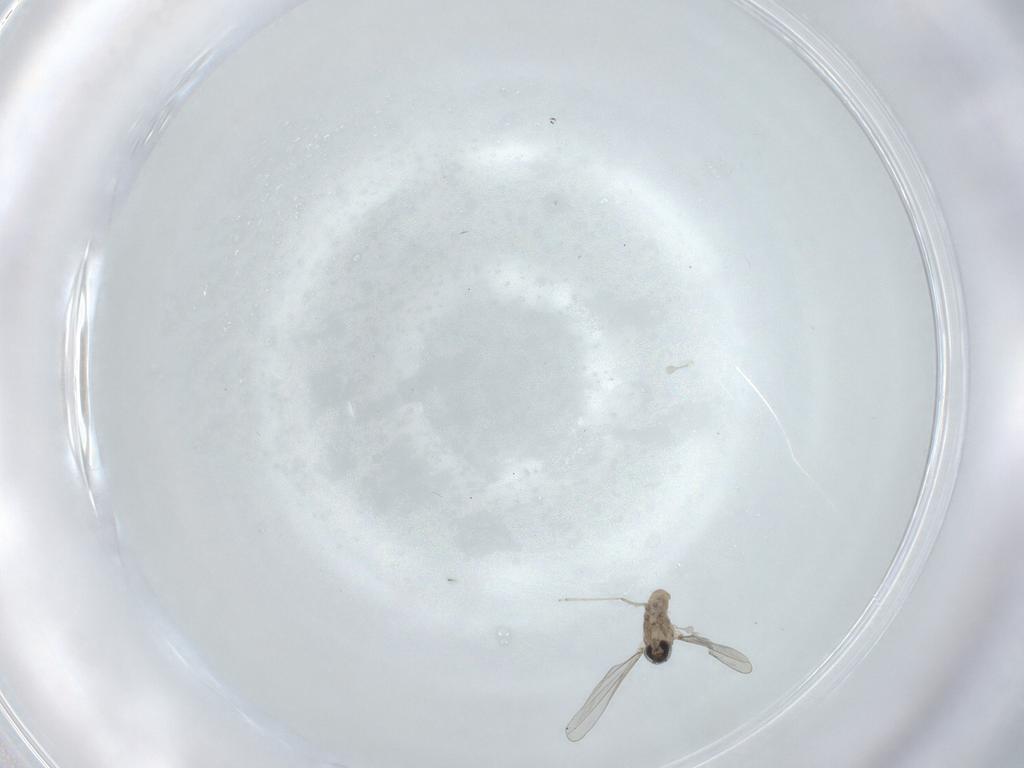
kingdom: Animalia
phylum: Arthropoda
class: Insecta
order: Diptera
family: Cecidomyiidae
